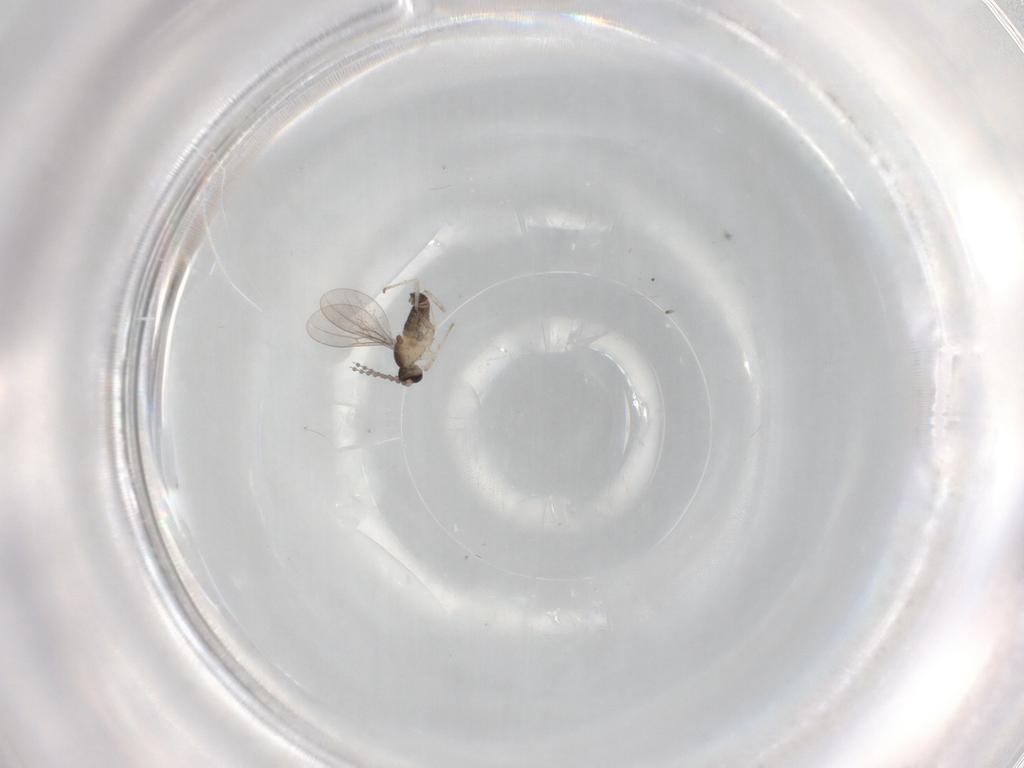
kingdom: Animalia
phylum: Arthropoda
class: Insecta
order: Diptera
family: Cecidomyiidae
